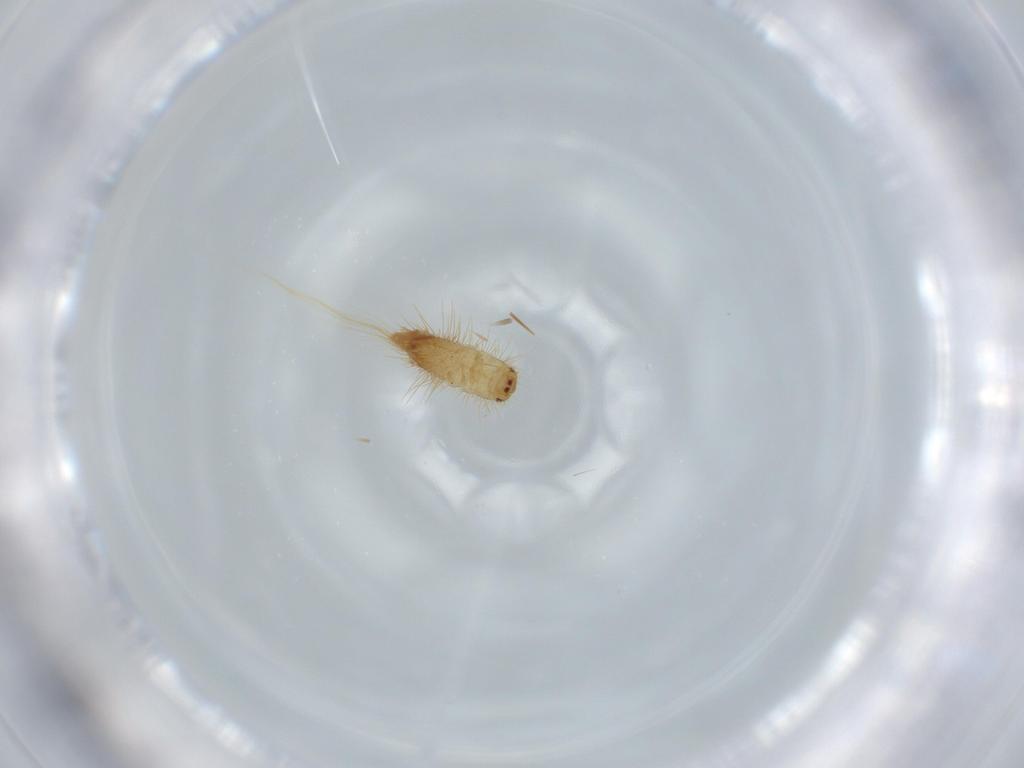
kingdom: Animalia
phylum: Arthropoda
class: Insecta
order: Coleoptera
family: Dermestidae
